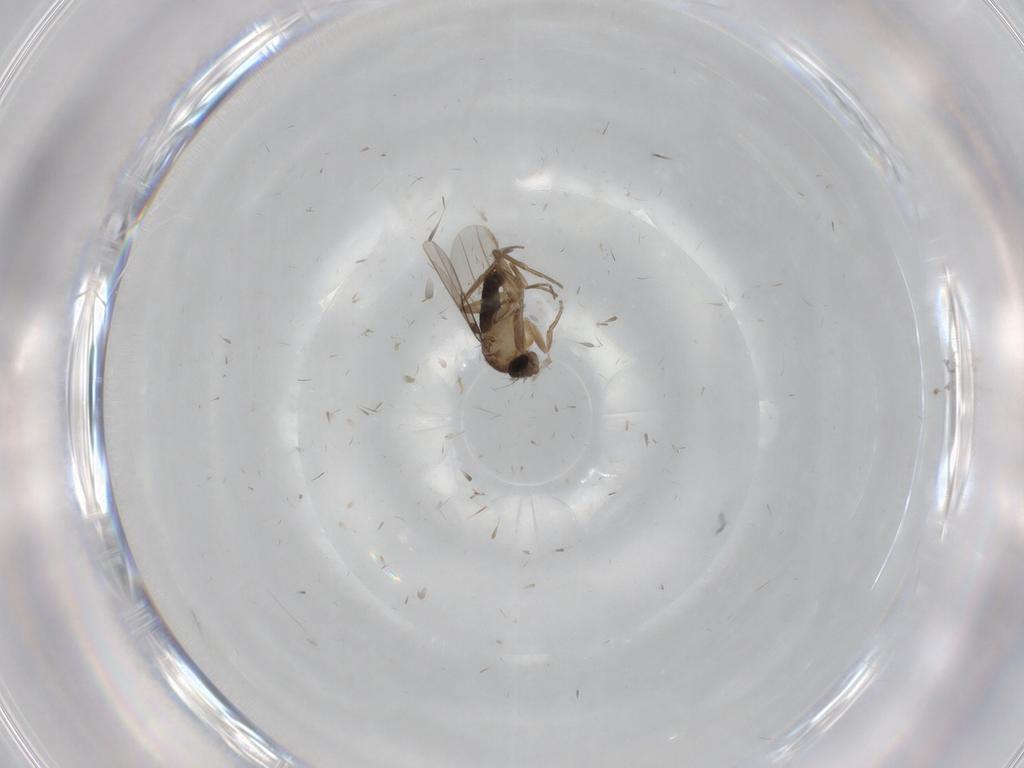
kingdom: Animalia
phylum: Arthropoda
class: Insecta
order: Diptera
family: Phoridae
